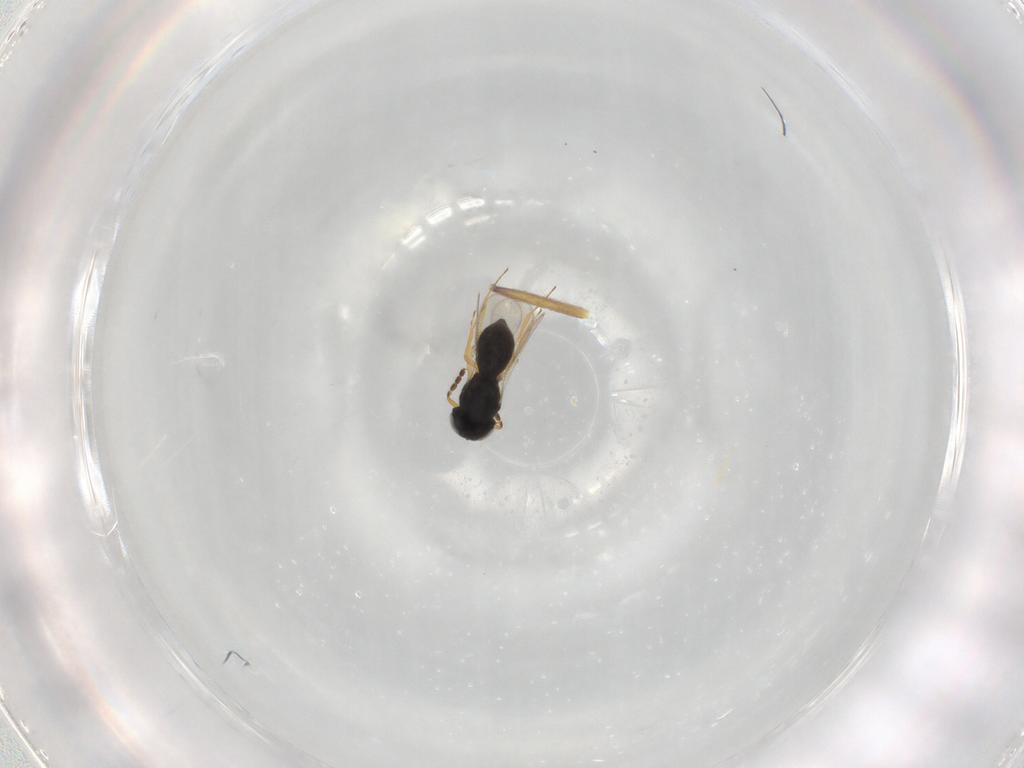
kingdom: Animalia
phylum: Arthropoda
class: Insecta
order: Hymenoptera
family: Scelionidae
